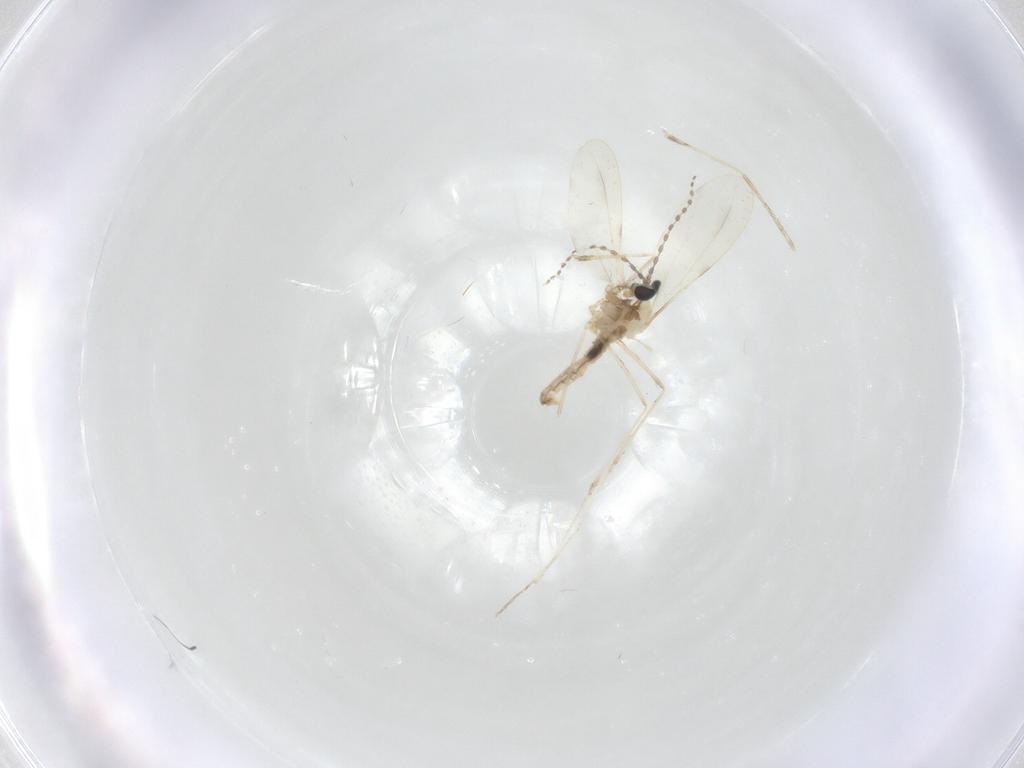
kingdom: Animalia
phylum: Arthropoda
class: Insecta
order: Diptera
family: Cecidomyiidae
